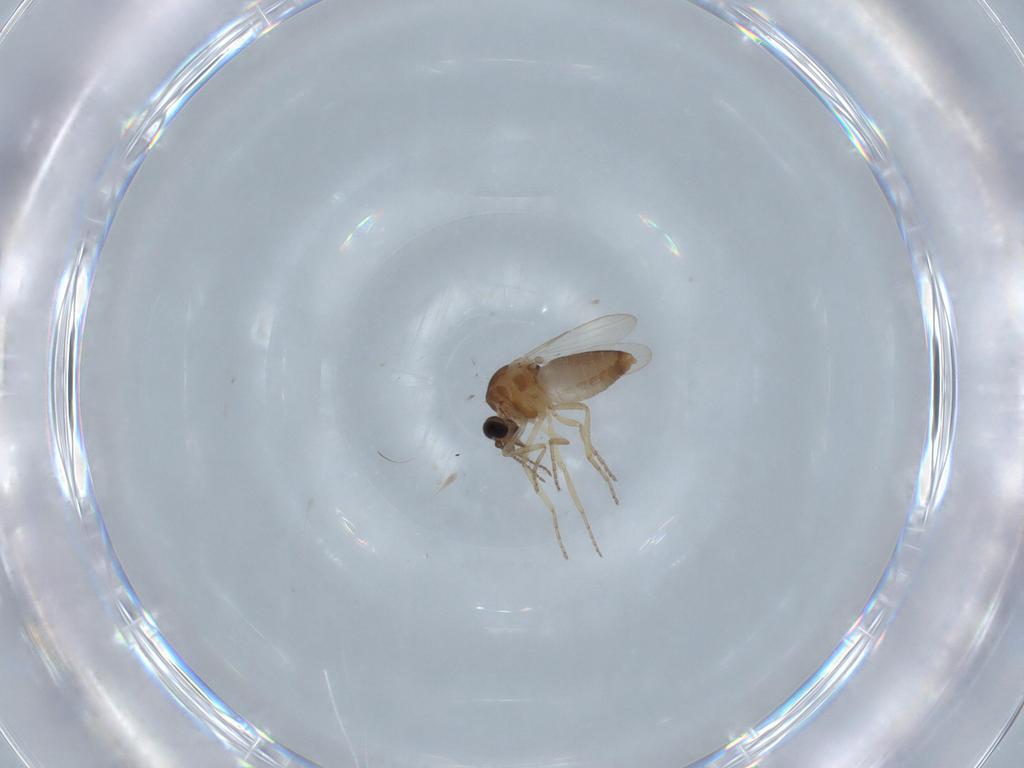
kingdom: Animalia
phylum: Arthropoda
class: Insecta
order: Diptera
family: Ceratopogonidae
